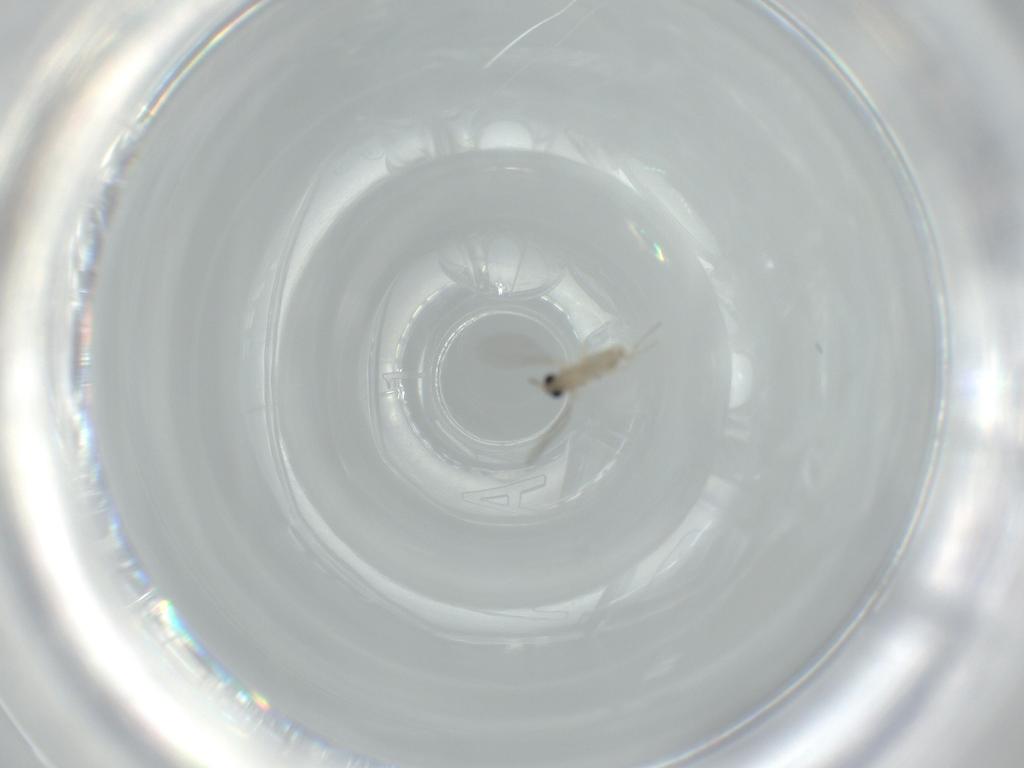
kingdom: Animalia
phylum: Arthropoda
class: Insecta
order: Diptera
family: Cecidomyiidae
